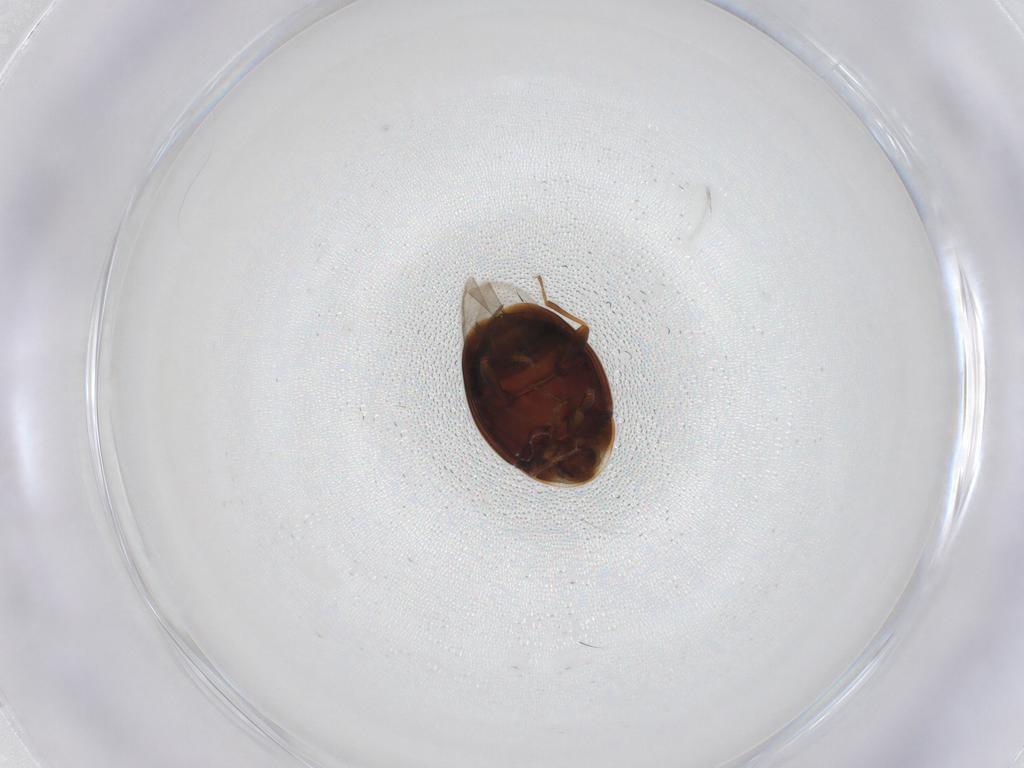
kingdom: Animalia
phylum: Arthropoda
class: Insecta
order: Coleoptera
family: Corylophidae
